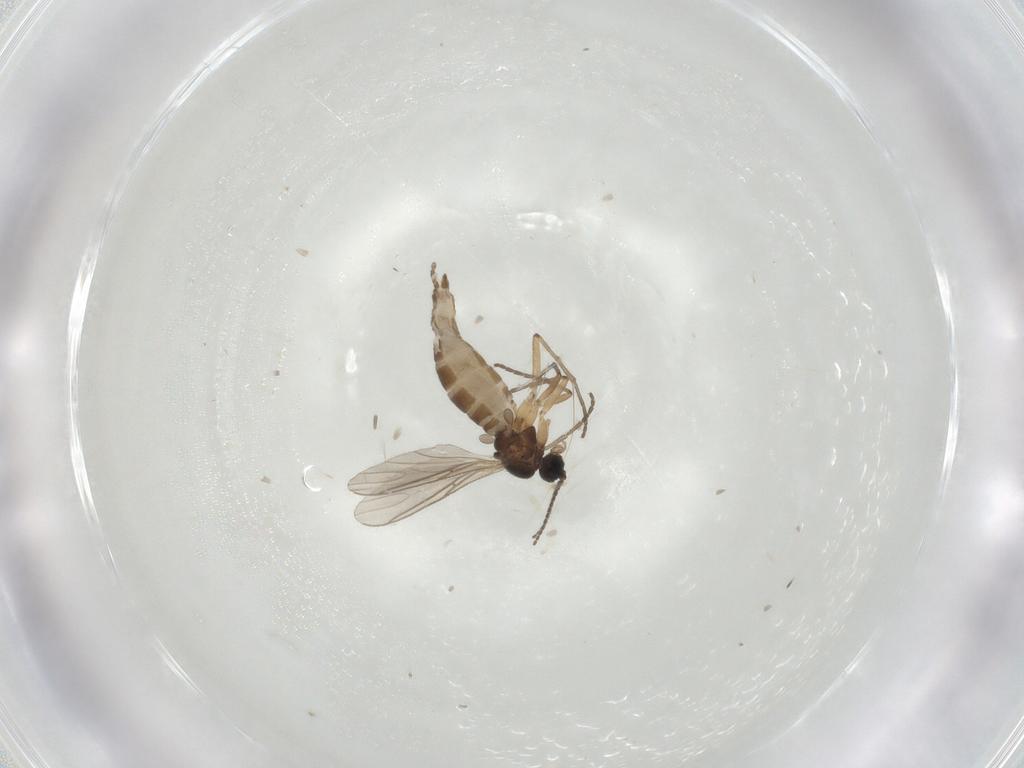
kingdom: Animalia
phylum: Arthropoda
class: Insecta
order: Diptera
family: Sciaridae
